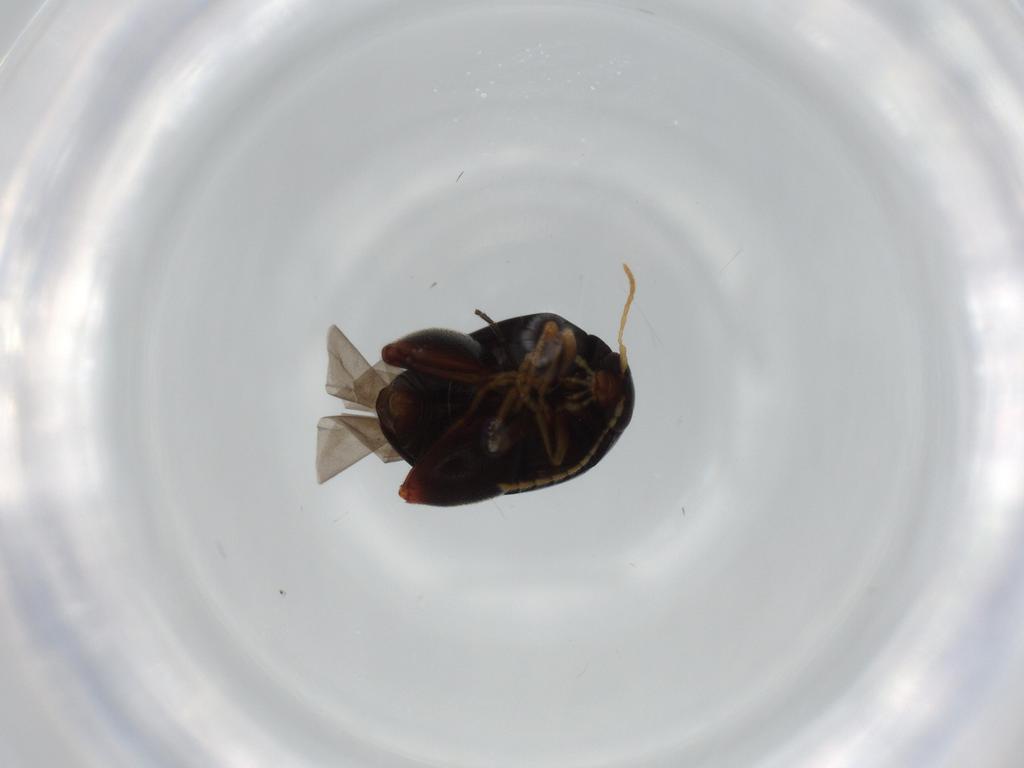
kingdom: Animalia
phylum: Arthropoda
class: Insecta
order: Coleoptera
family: Chrysomelidae
